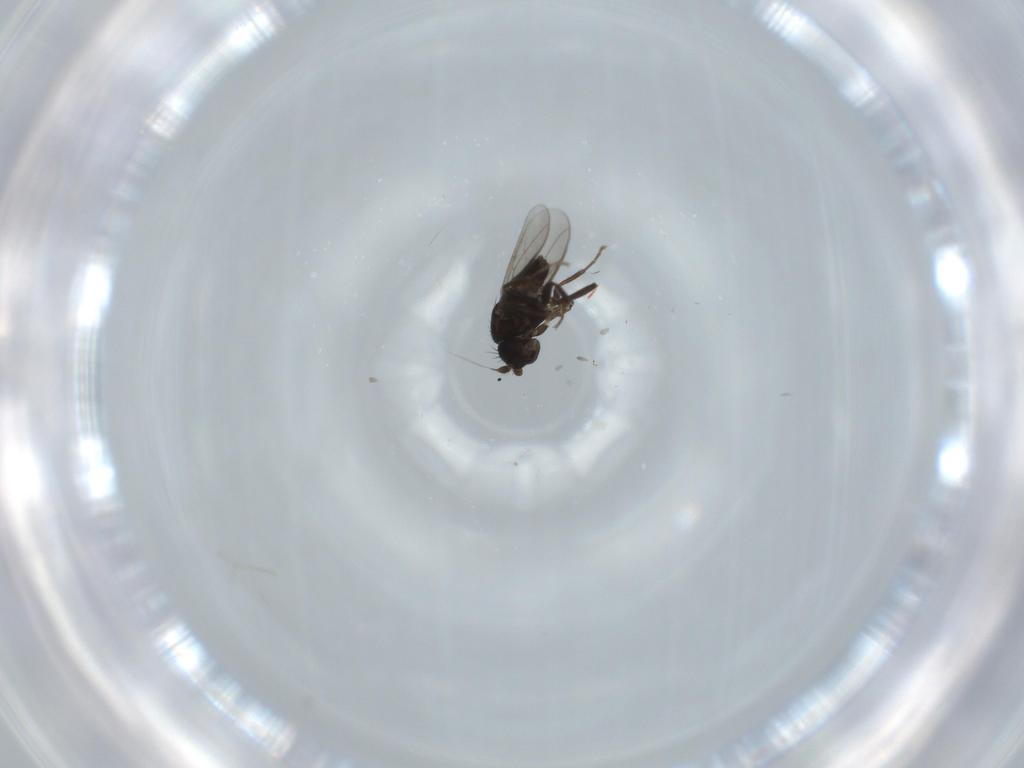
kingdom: Animalia
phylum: Arthropoda
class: Insecta
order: Diptera
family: Sphaeroceridae
